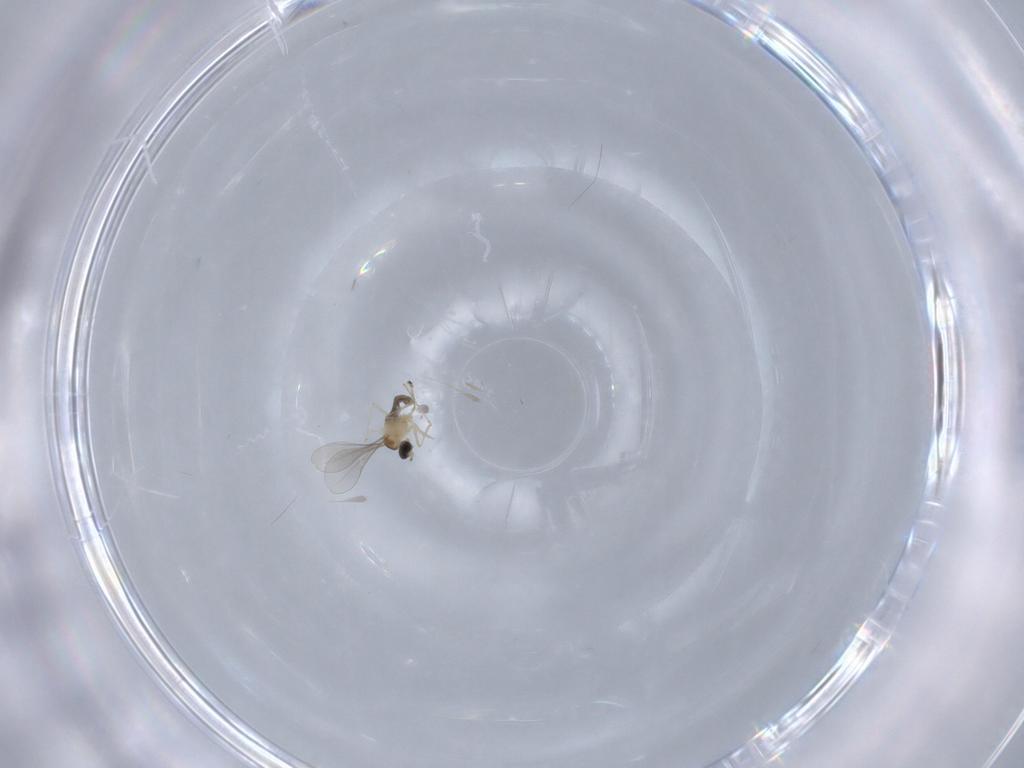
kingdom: Animalia
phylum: Arthropoda
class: Insecta
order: Diptera
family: Cecidomyiidae
